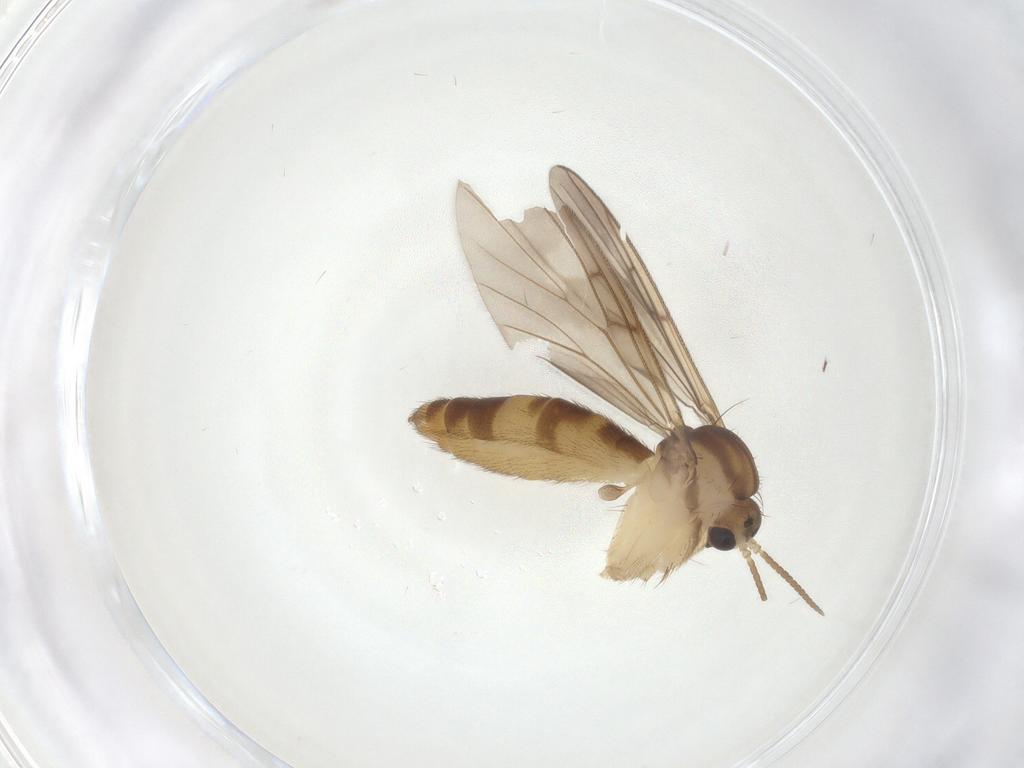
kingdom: Animalia
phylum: Arthropoda
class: Insecta
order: Diptera
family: Mycetophilidae
